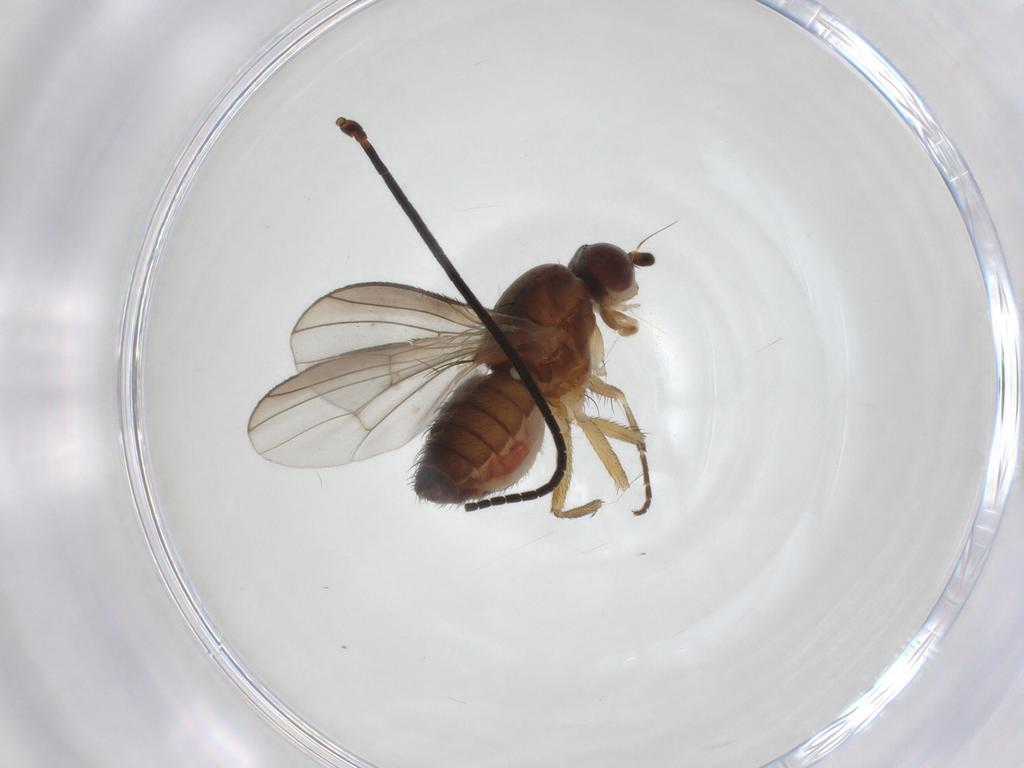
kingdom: Animalia
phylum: Arthropoda
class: Insecta
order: Diptera
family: Heleomyzidae
